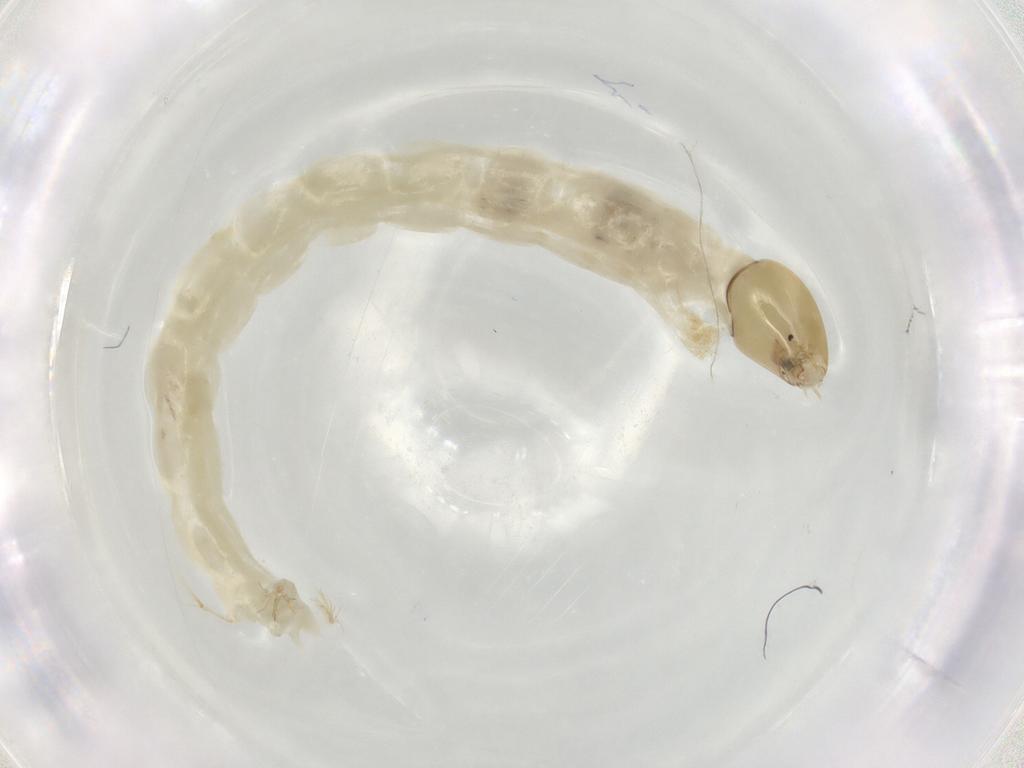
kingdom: Animalia
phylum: Arthropoda
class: Insecta
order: Diptera
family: Chironomidae
